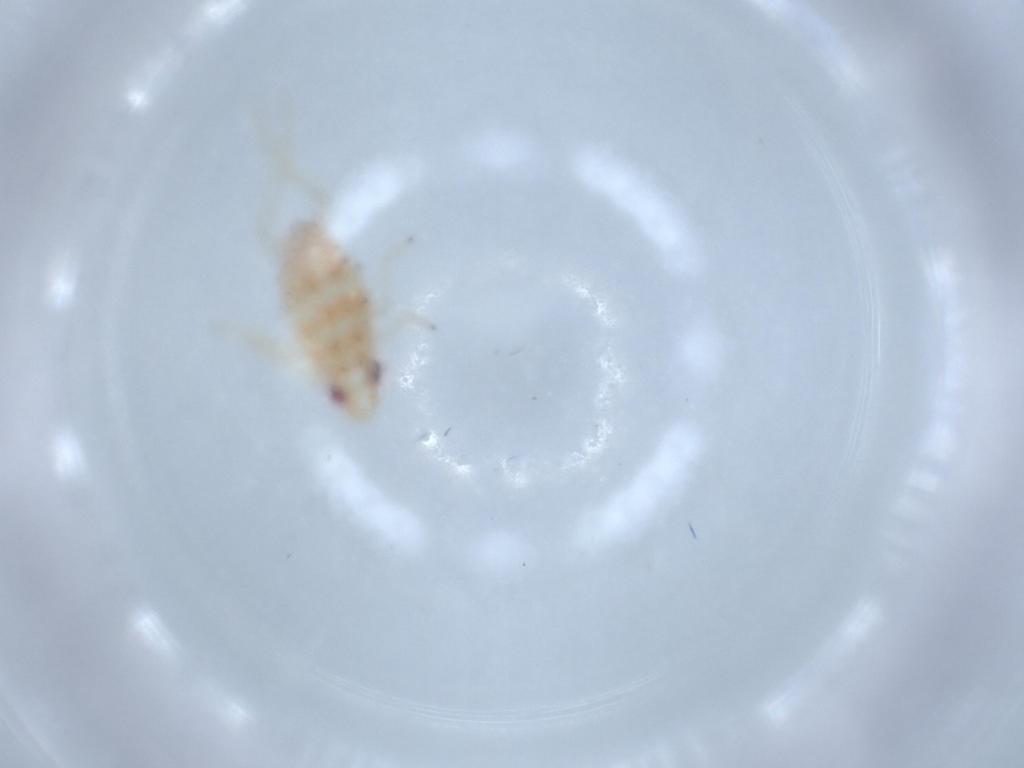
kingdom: Animalia
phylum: Arthropoda
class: Insecta
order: Hemiptera
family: Tropiduchidae
